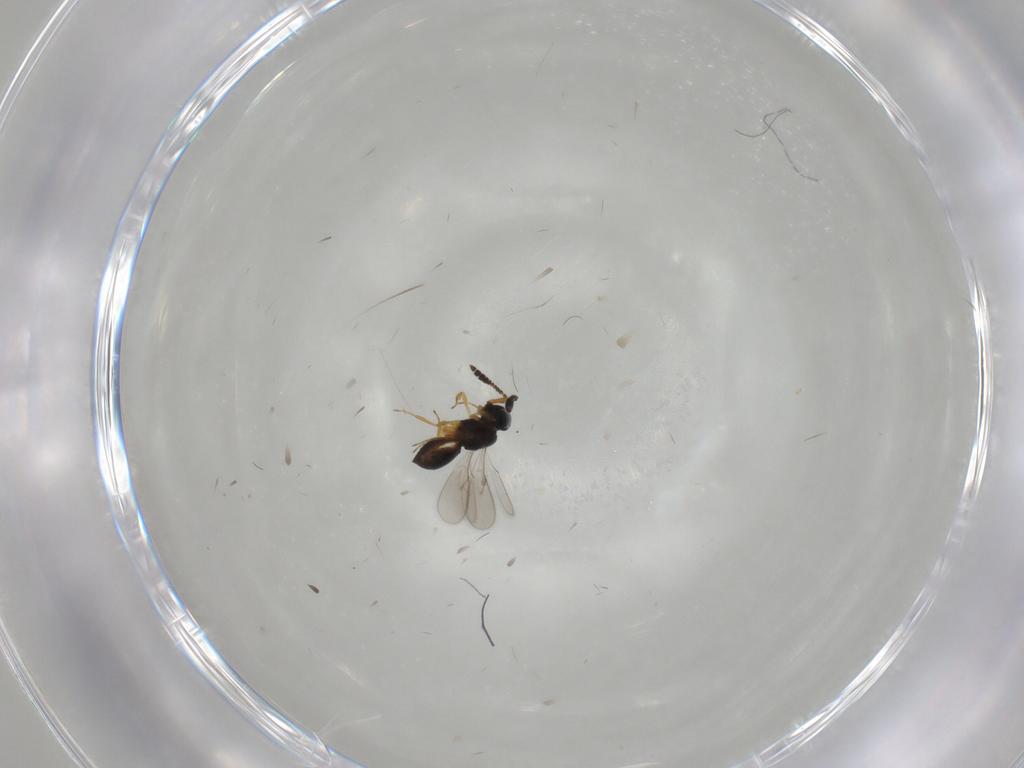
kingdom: Animalia
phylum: Arthropoda
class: Insecta
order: Hymenoptera
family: Scelionidae
